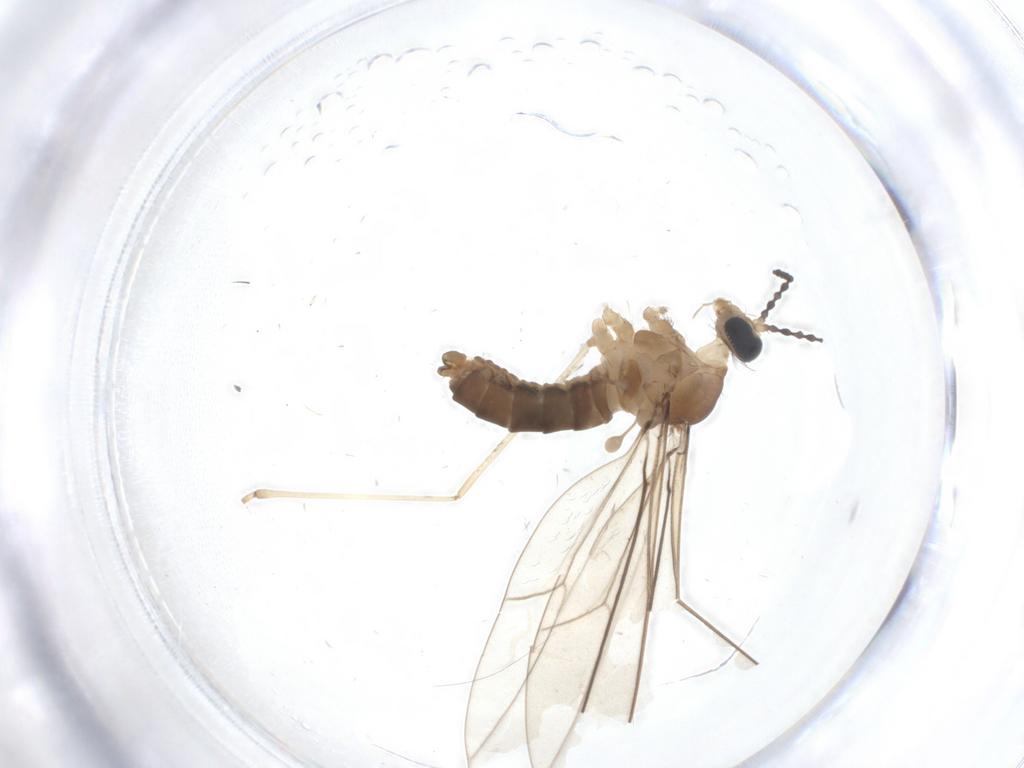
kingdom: Animalia
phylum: Arthropoda
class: Insecta
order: Diptera
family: Cecidomyiidae
